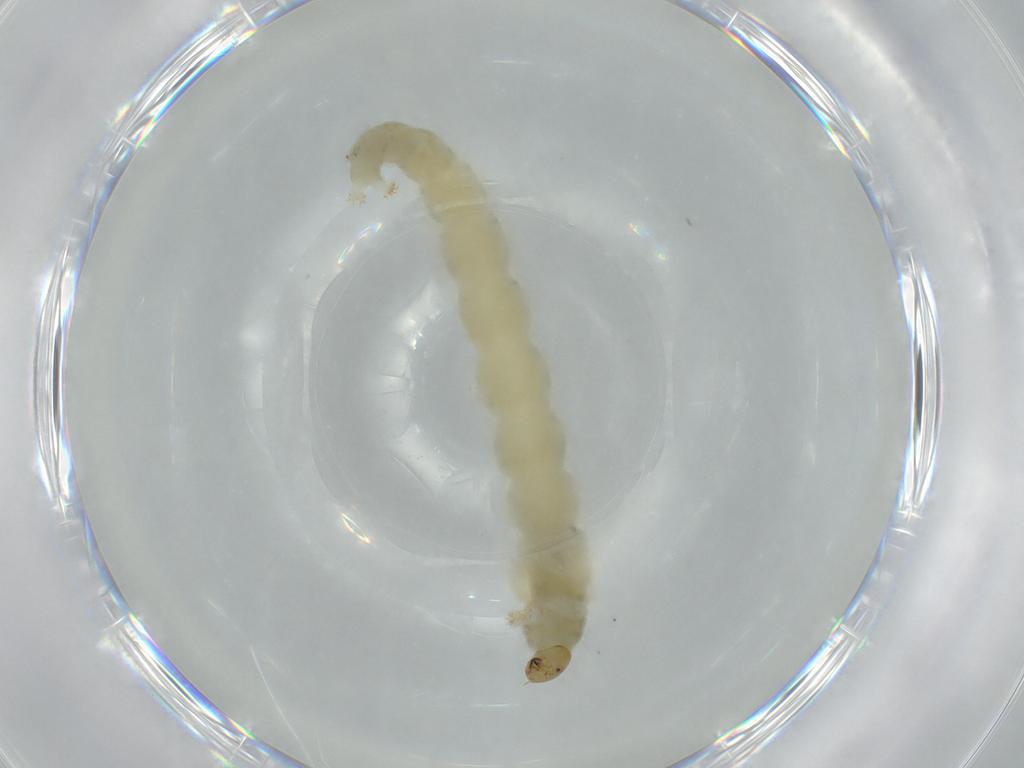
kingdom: Animalia
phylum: Arthropoda
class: Insecta
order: Diptera
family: Chironomidae
